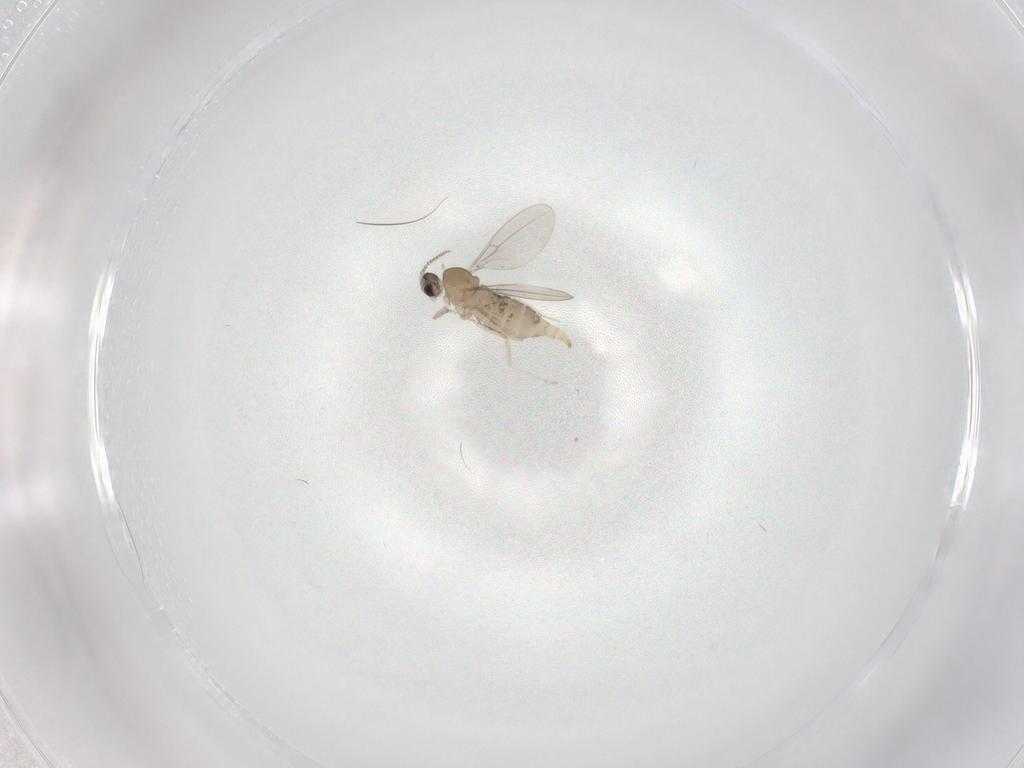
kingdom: Animalia
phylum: Arthropoda
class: Insecta
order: Diptera
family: Cecidomyiidae
